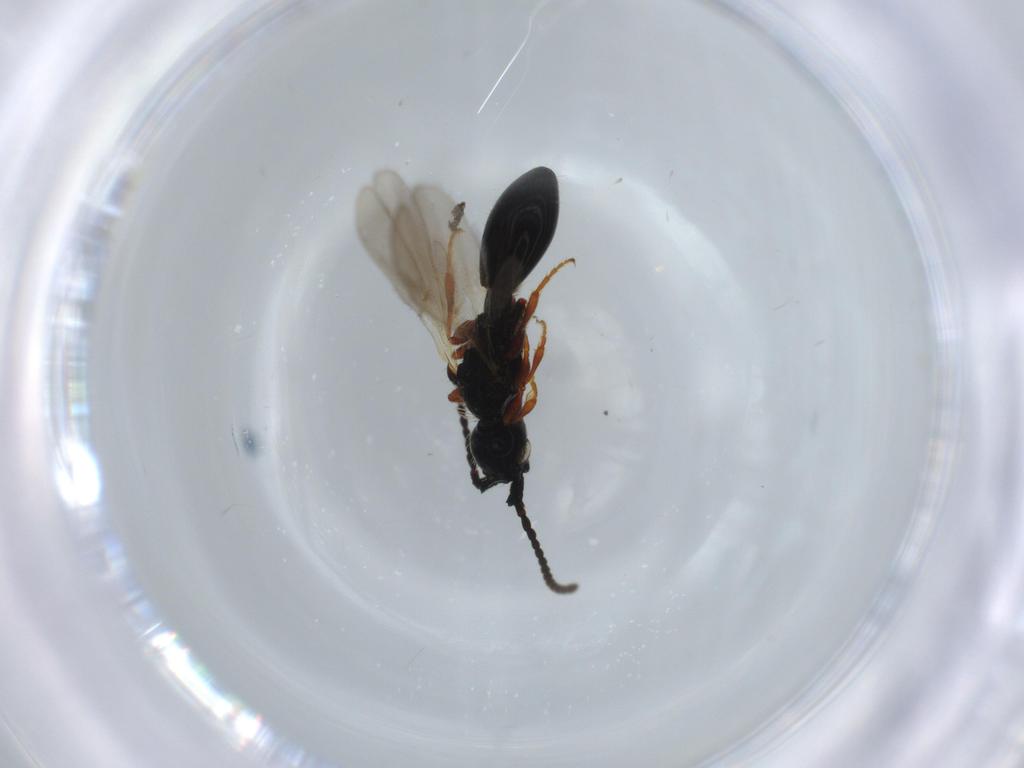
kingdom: Animalia
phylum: Arthropoda
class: Insecta
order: Hymenoptera
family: Diapriidae
